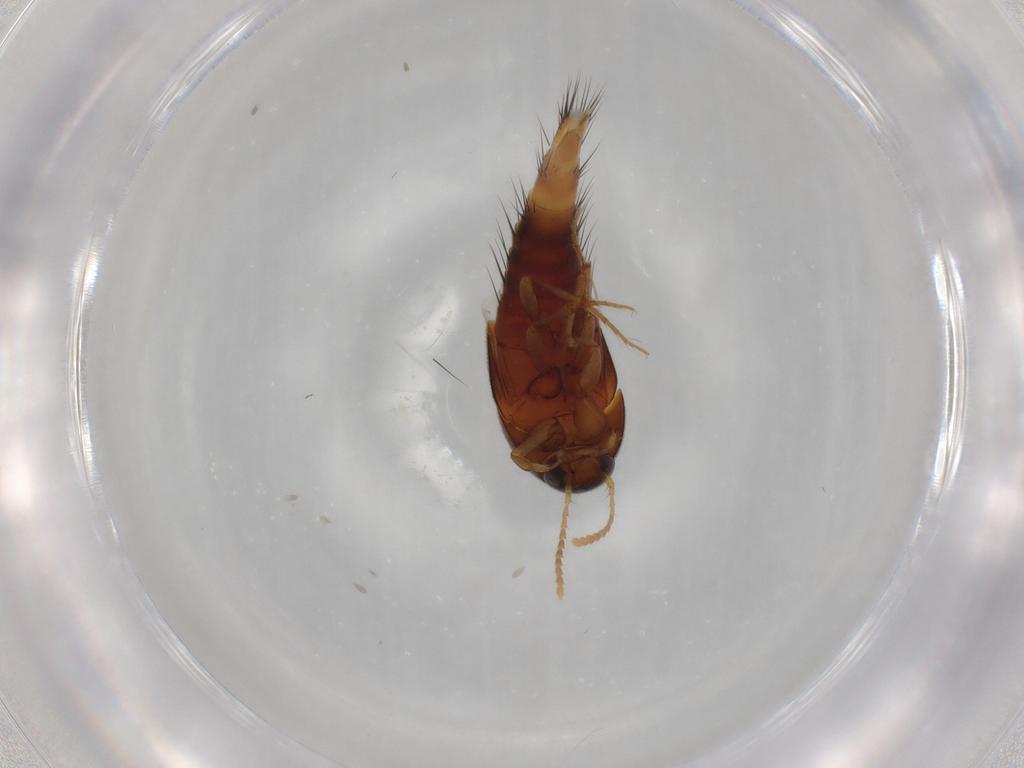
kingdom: Animalia
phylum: Arthropoda
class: Insecta
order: Coleoptera
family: Staphylinidae
